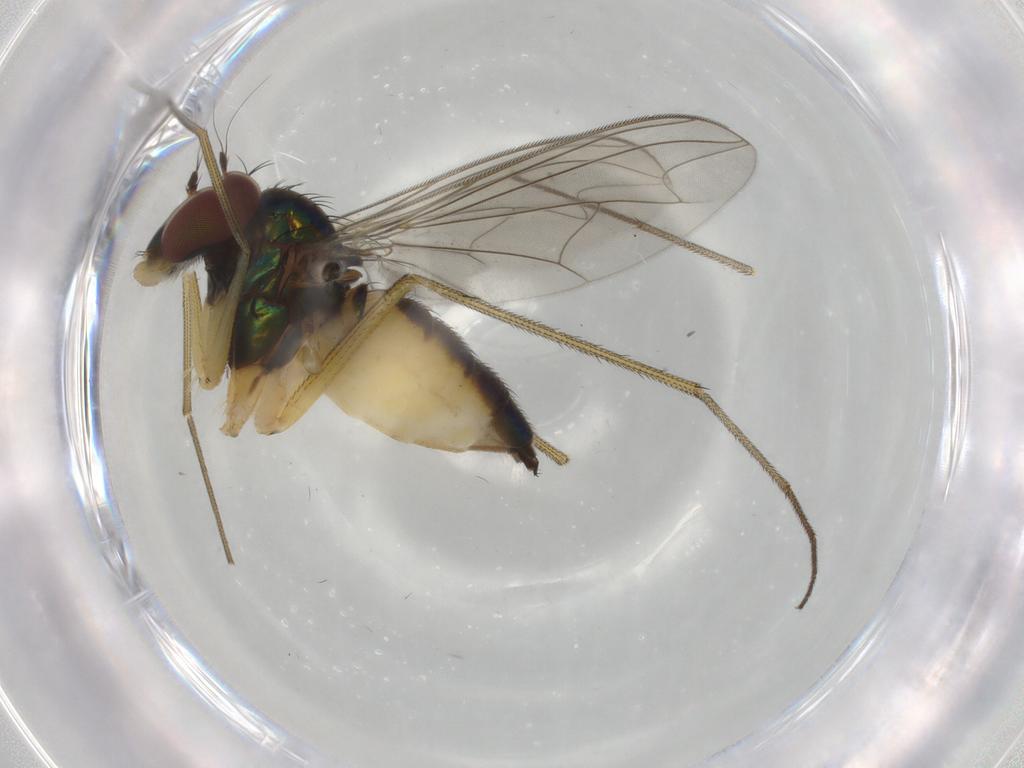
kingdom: Animalia
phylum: Arthropoda
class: Insecta
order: Diptera
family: Dolichopodidae
